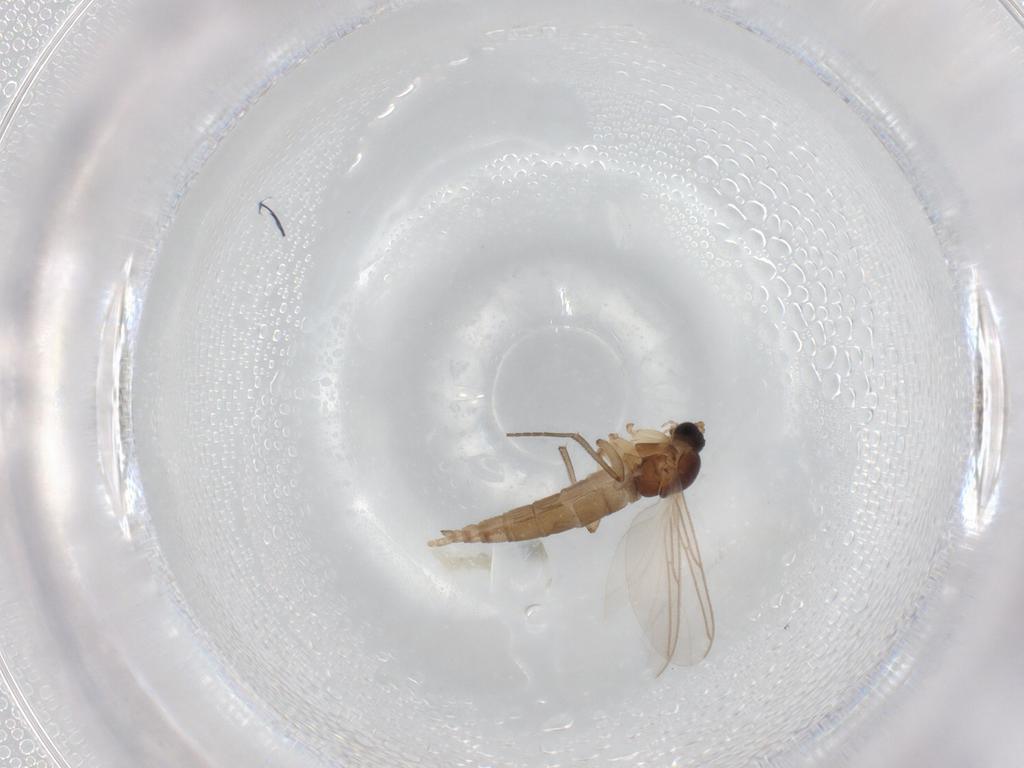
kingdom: Animalia
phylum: Arthropoda
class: Insecta
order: Diptera
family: Sciaridae
